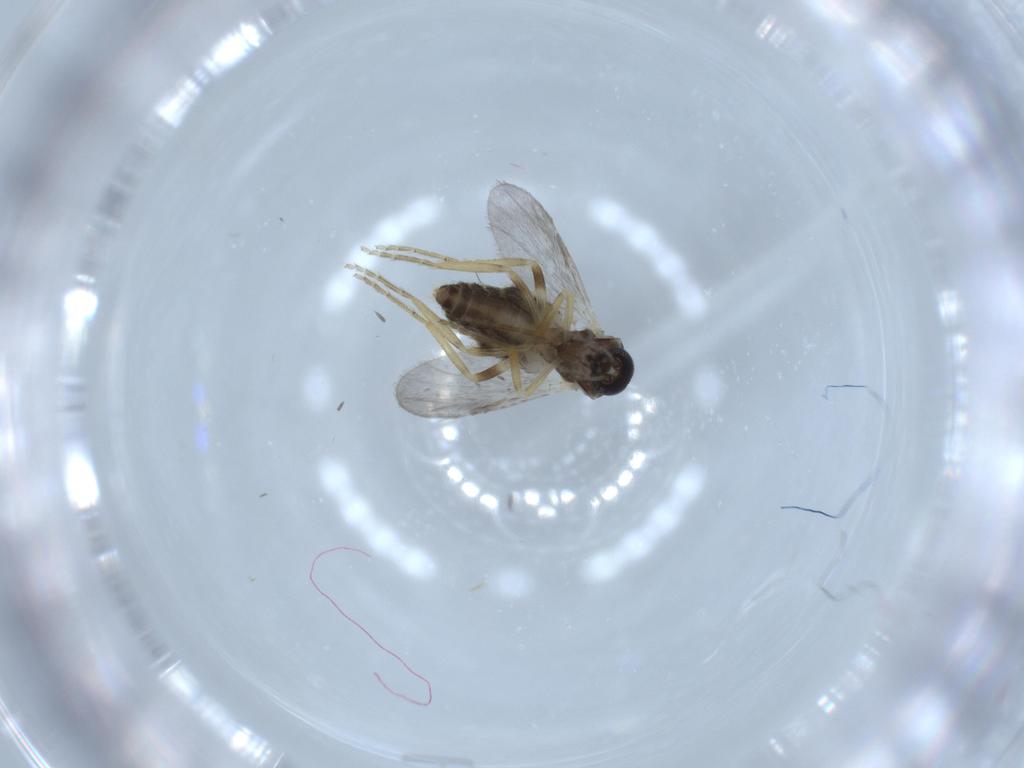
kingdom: Animalia
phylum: Arthropoda
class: Insecta
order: Diptera
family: Ceratopogonidae
